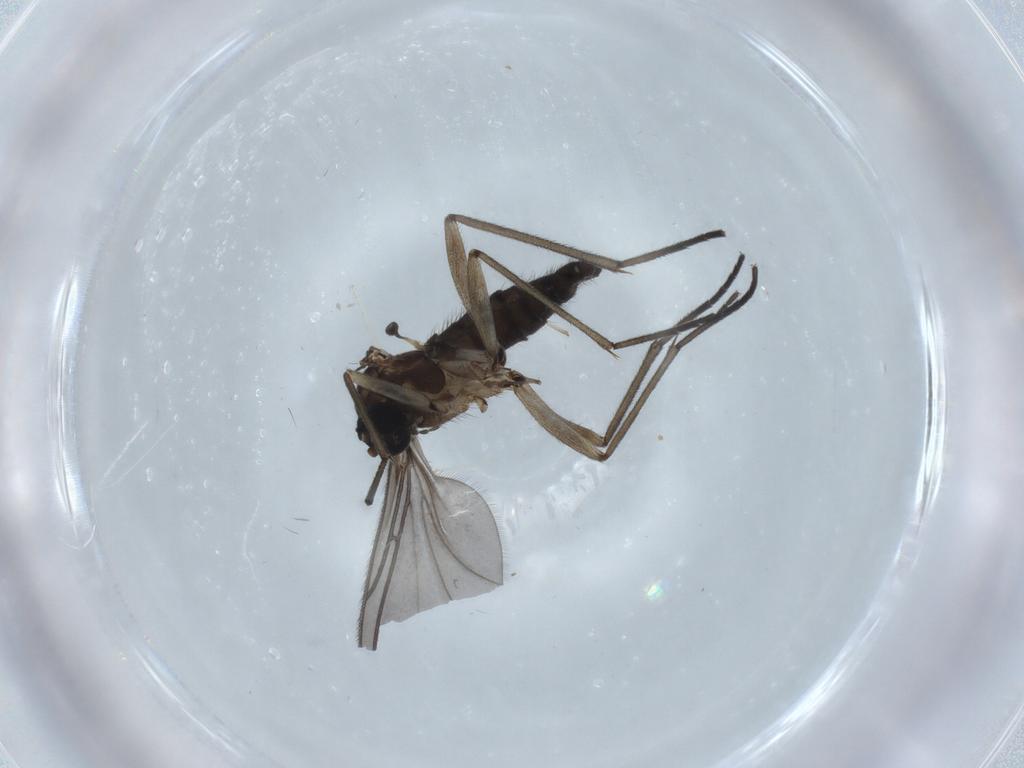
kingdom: Animalia
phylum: Arthropoda
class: Insecta
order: Diptera
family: Sciaridae
